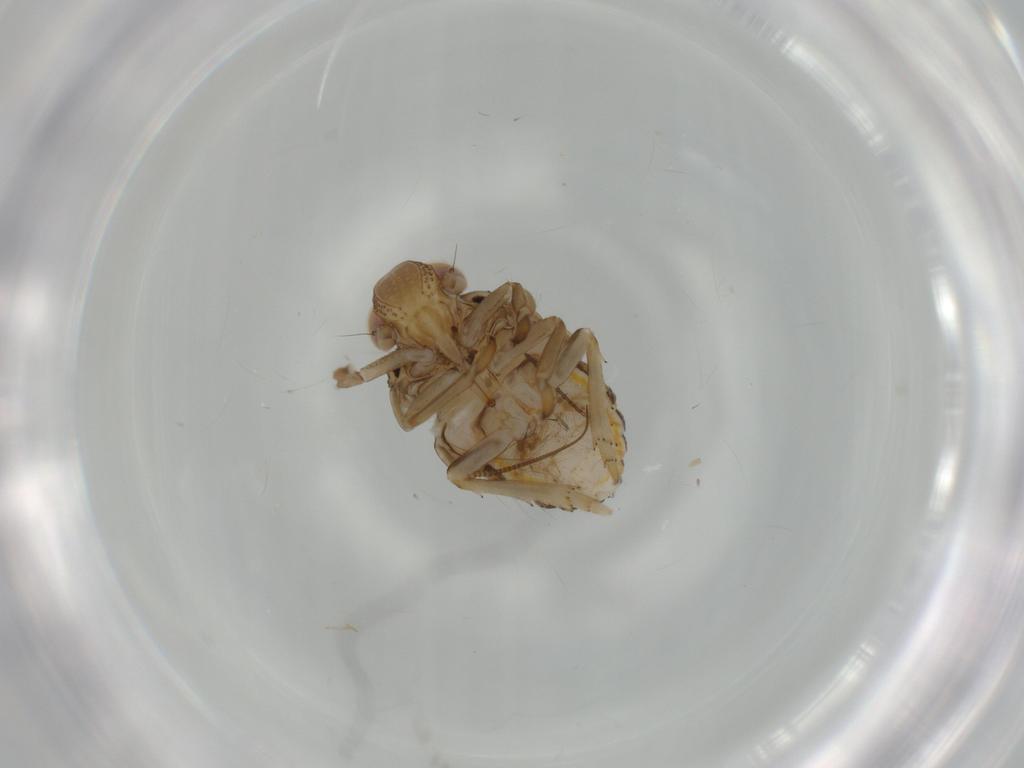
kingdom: Animalia
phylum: Arthropoda
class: Insecta
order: Hemiptera
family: Issidae
